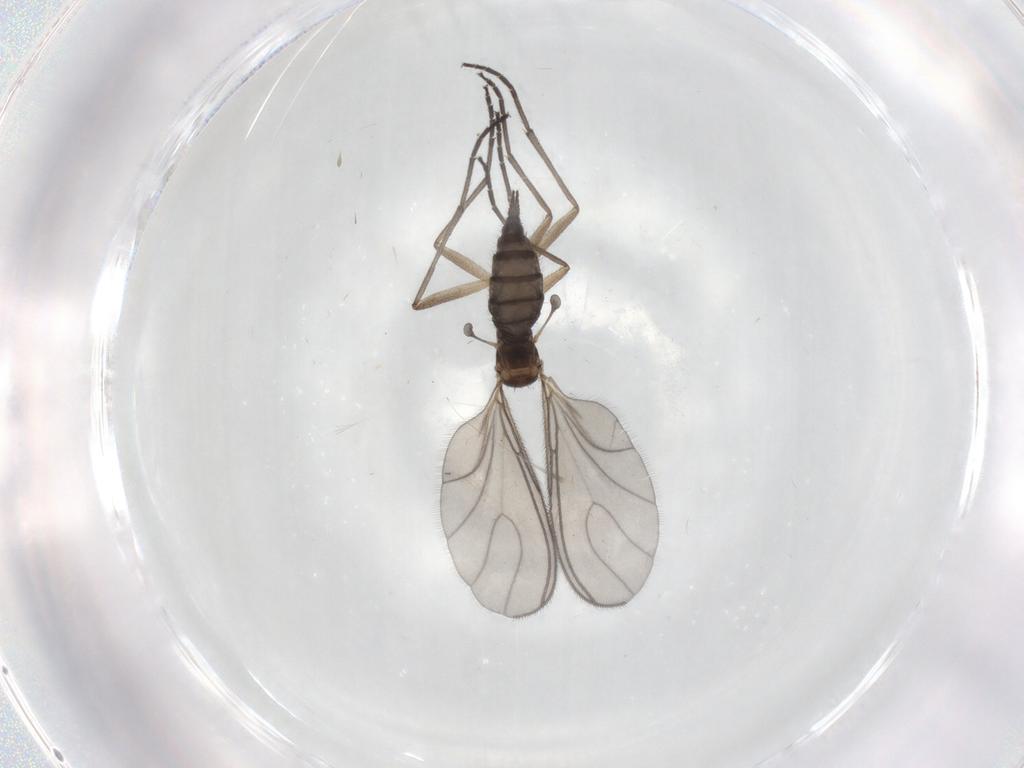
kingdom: Animalia
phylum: Arthropoda
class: Insecta
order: Diptera
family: Sciaridae
